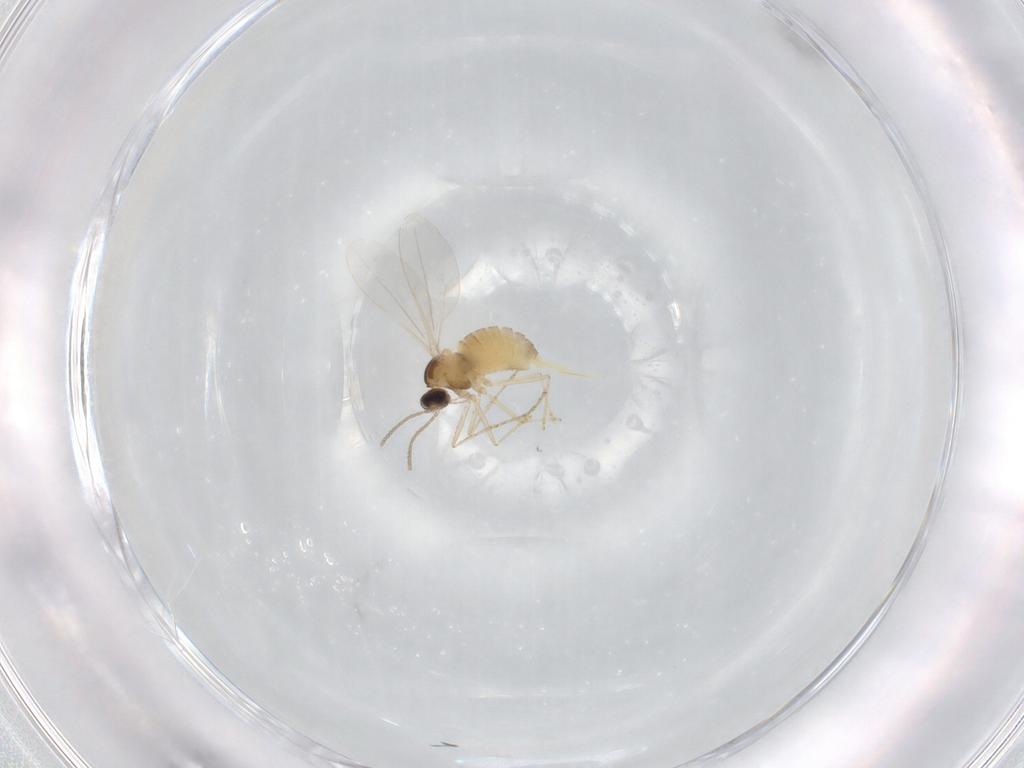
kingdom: Animalia
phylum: Arthropoda
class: Insecta
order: Diptera
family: Cecidomyiidae
